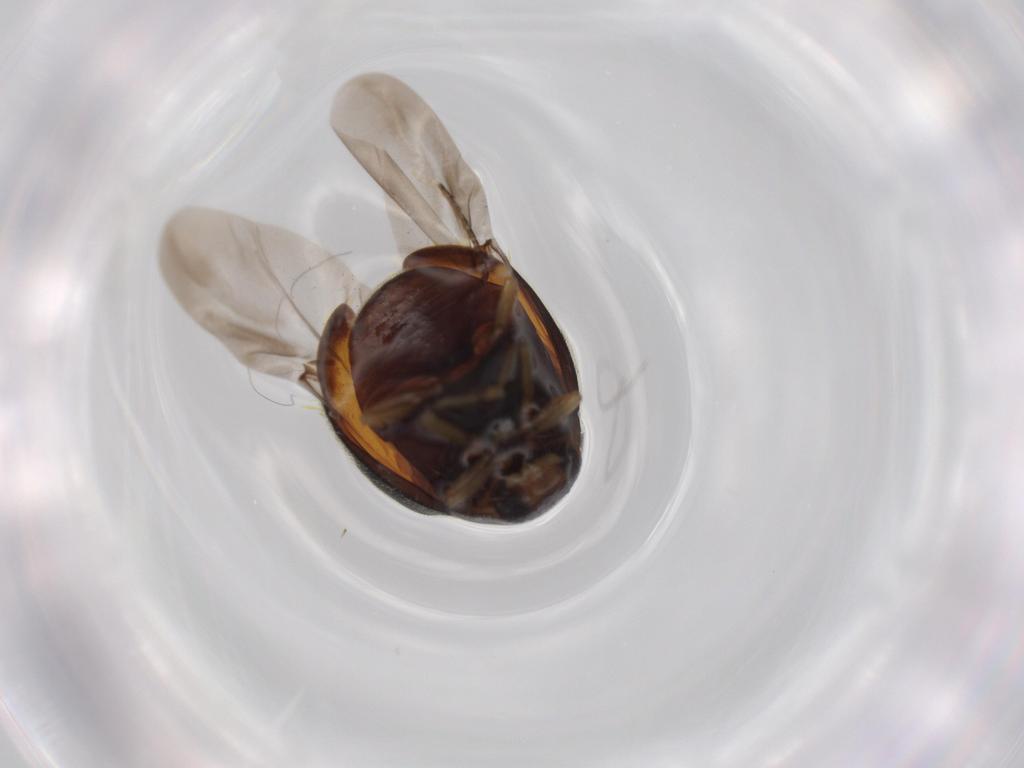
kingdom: Animalia
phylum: Arthropoda
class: Insecta
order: Coleoptera
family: Coccinellidae
